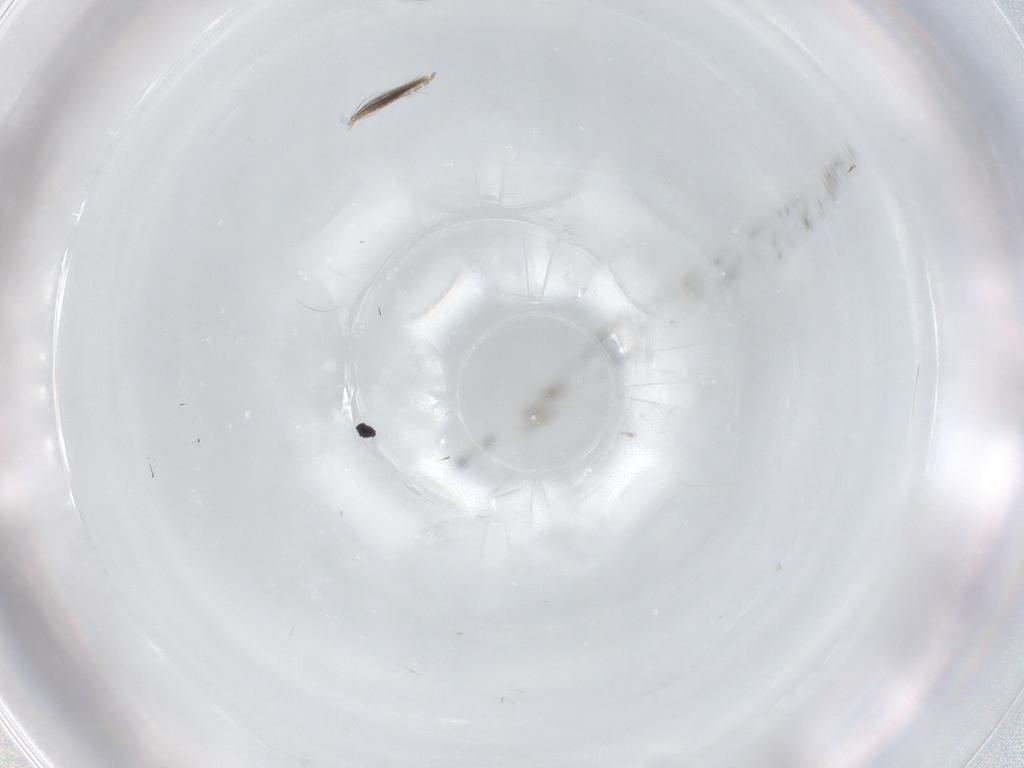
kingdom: Animalia
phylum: Arthropoda
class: Insecta
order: Diptera
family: Scatopsidae
